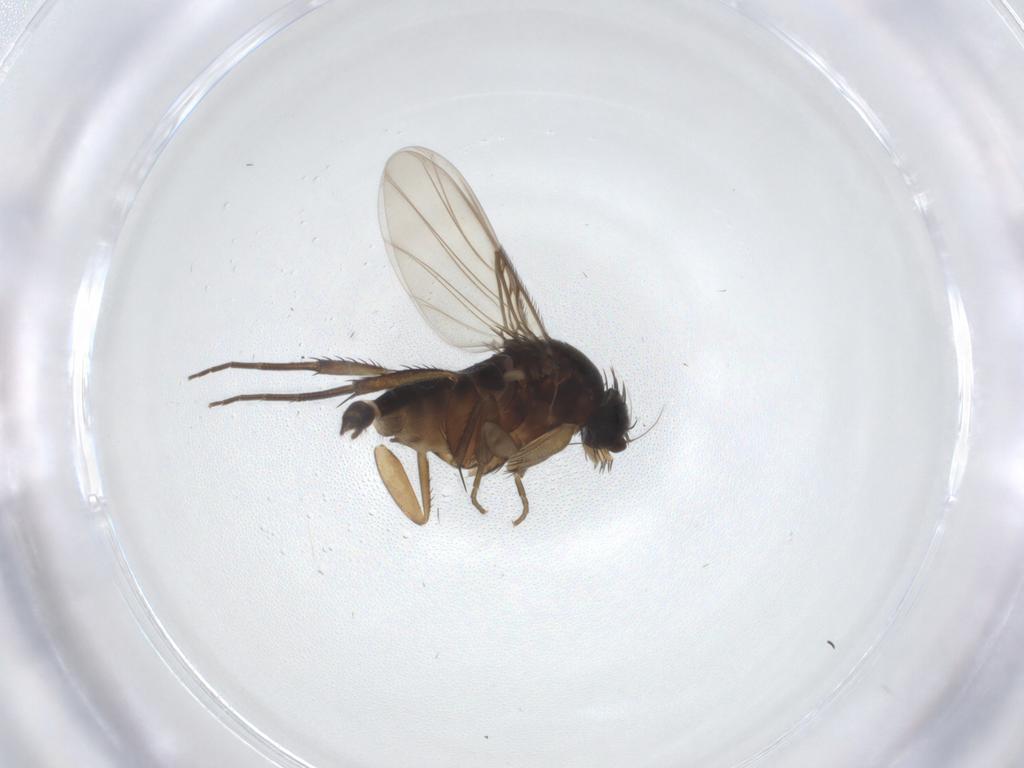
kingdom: Animalia
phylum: Arthropoda
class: Insecta
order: Diptera
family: Phoridae
